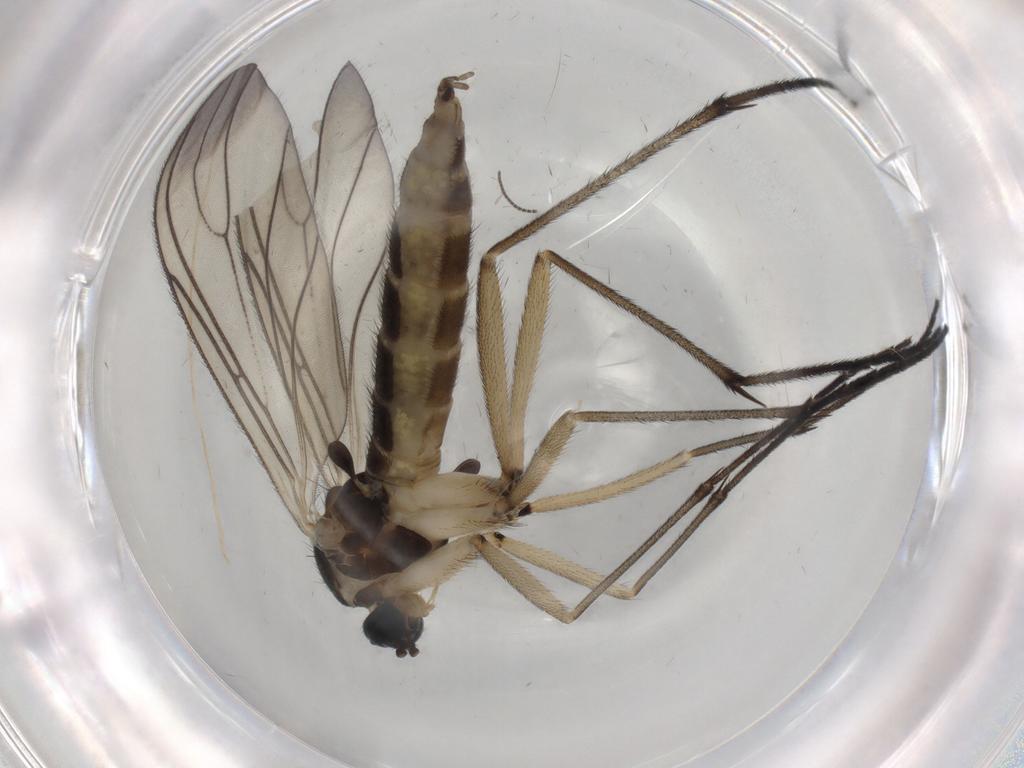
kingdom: Animalia
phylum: Arthropoda
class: Insecta
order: Diptera
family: Sciaridae
